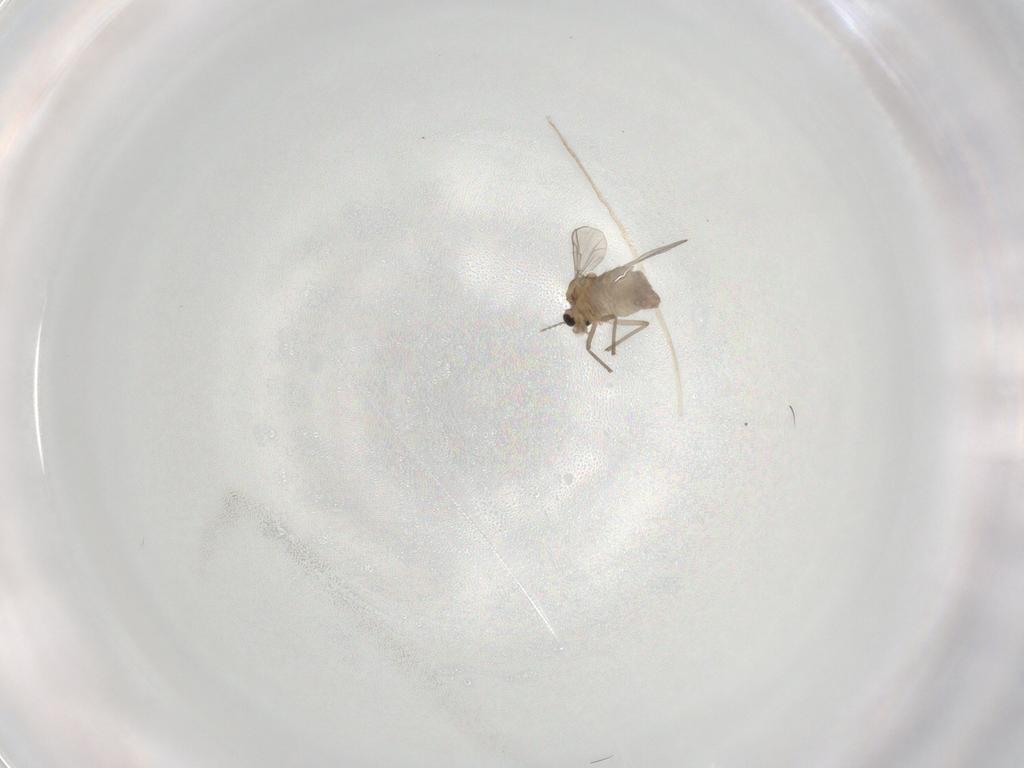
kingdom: Animalia
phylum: Arthropoda
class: Insecta
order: Diptera
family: Chironomidae
